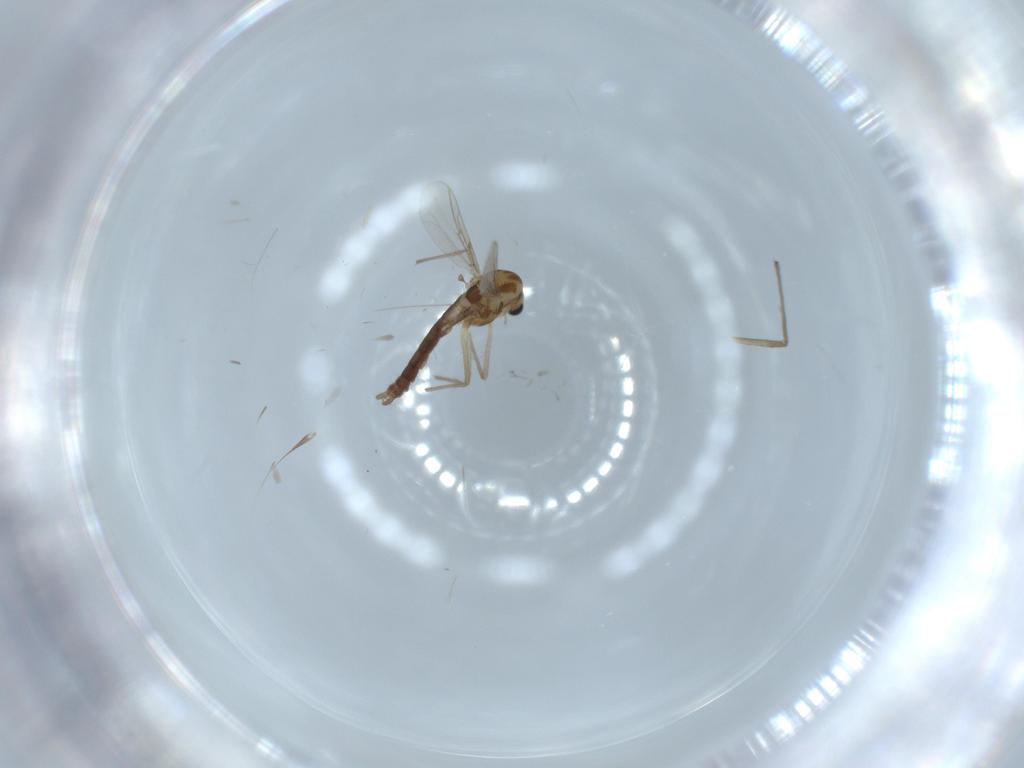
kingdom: Animalia
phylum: Arthropoda
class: Insecta
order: Diptera
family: Chironomidae
